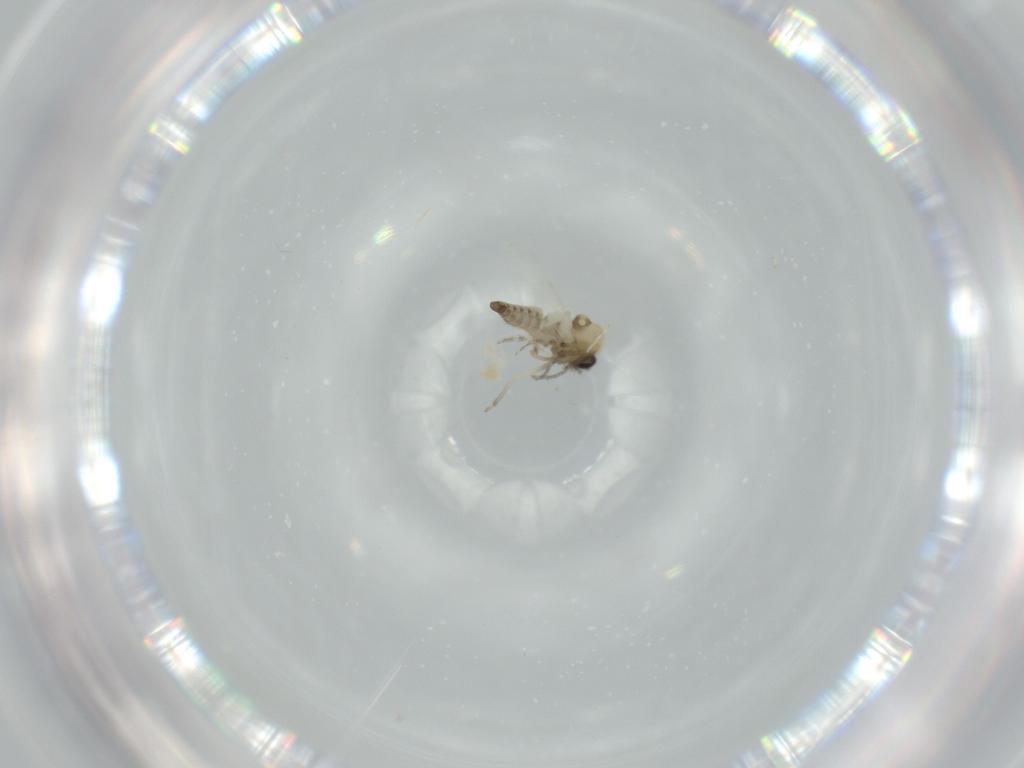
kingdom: Animalia
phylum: Arthropoda
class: Insecta
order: Diptera
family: Ceratopogonidae
